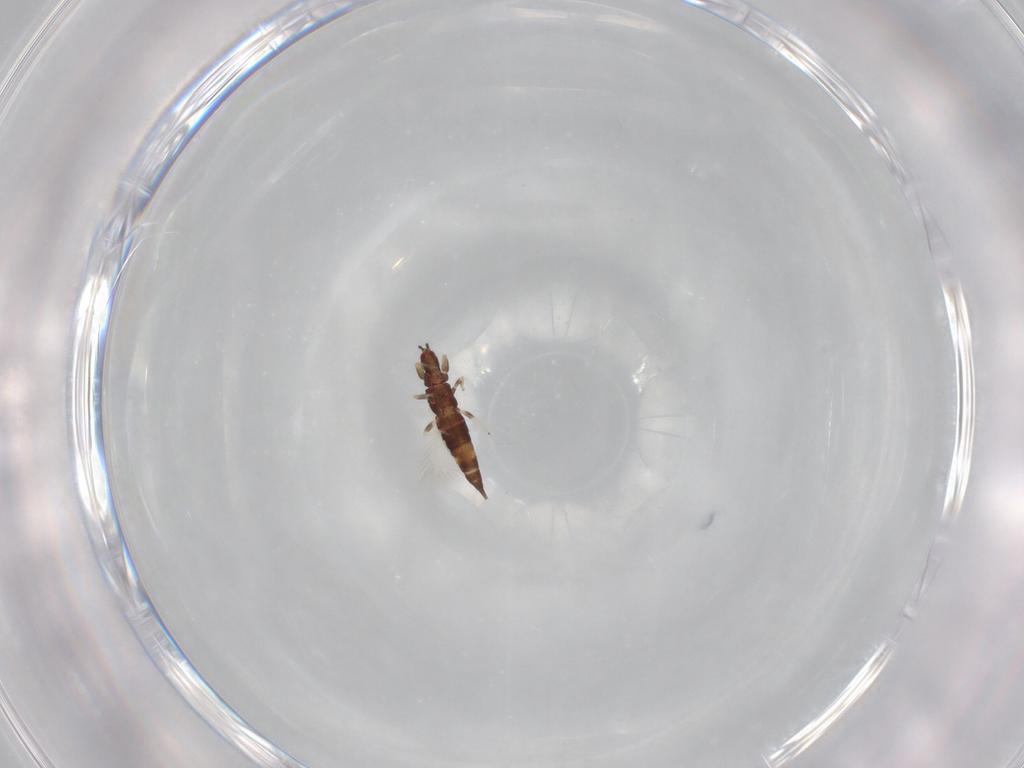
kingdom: Animalia
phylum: Arthropoda
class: Insecta
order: Thysanoptera
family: Phlaeothripidae
